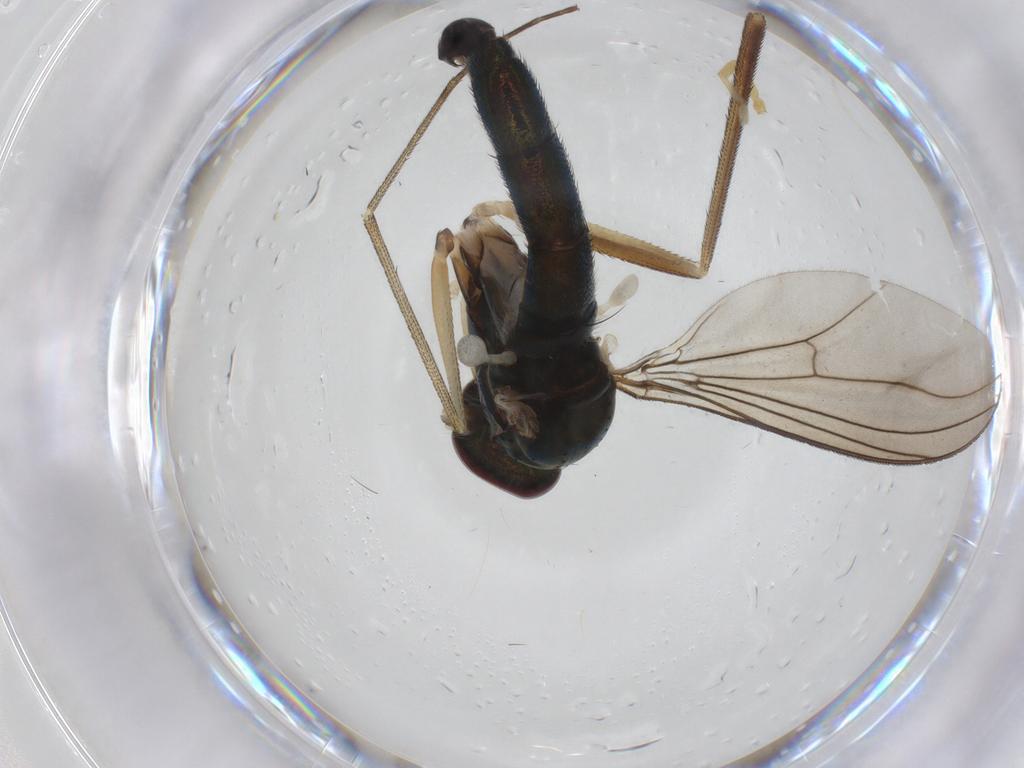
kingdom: Animalia
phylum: Arthropoda
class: Insecta
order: Diptera
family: Dolichopodidae
